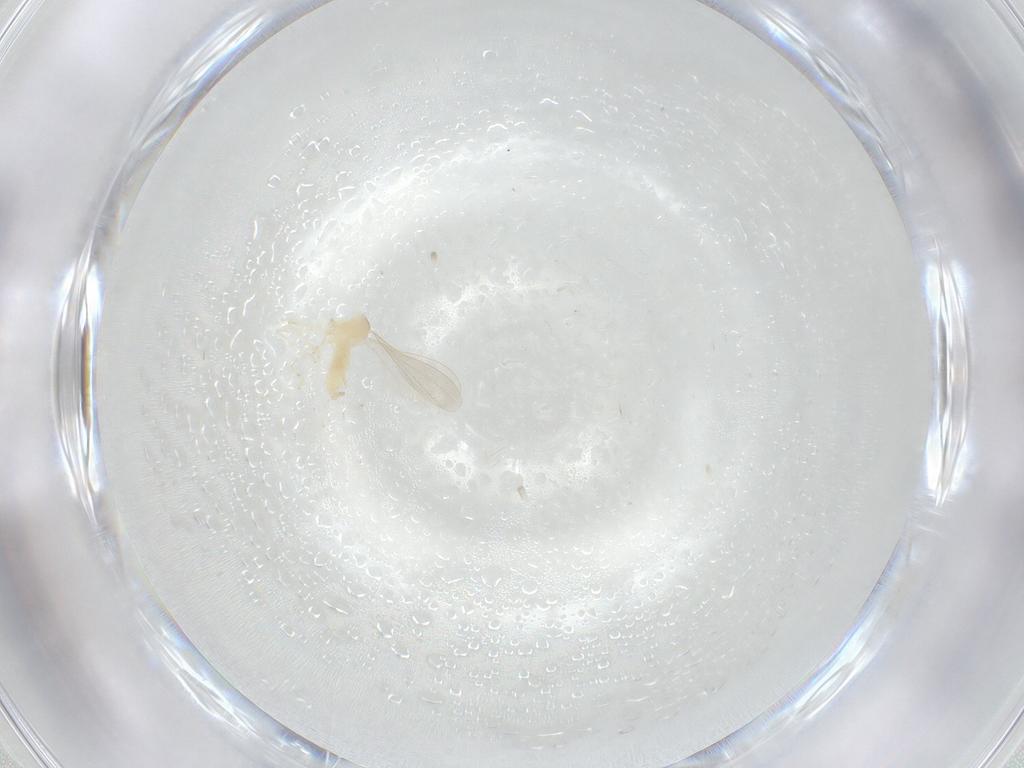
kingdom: Animalia
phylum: Arthropoda
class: Insecta
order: Diptera
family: Cecidomyiidae
